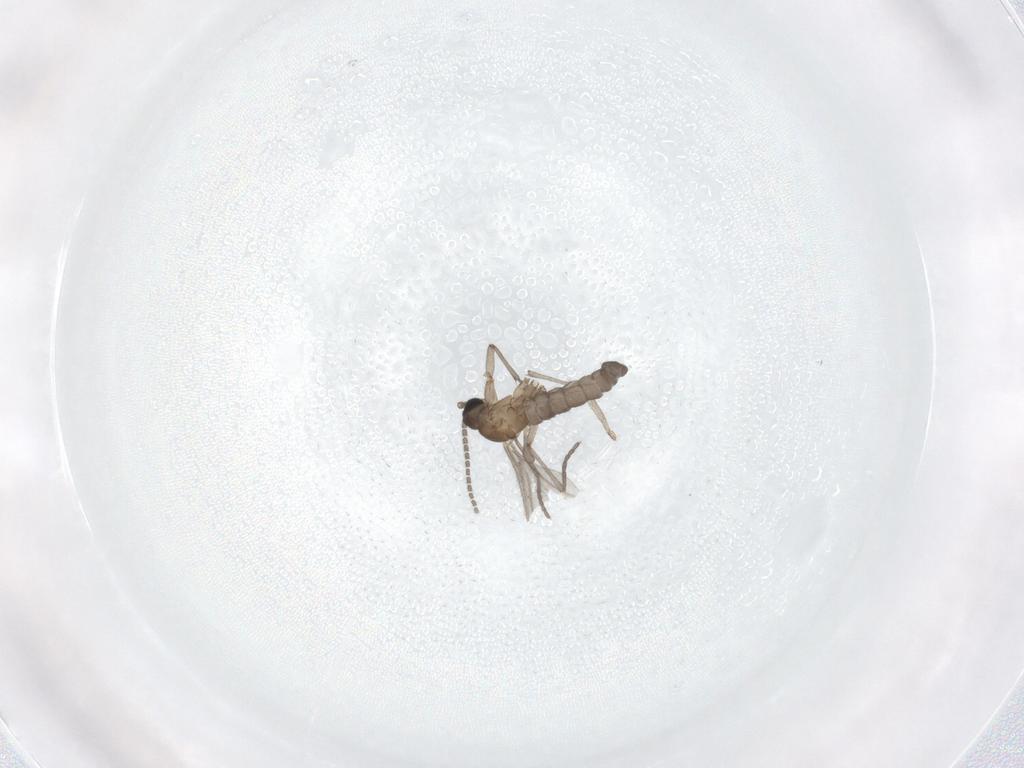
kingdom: Animalia
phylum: Arthropoda
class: Insecta
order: Diptera
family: Sciaridae
